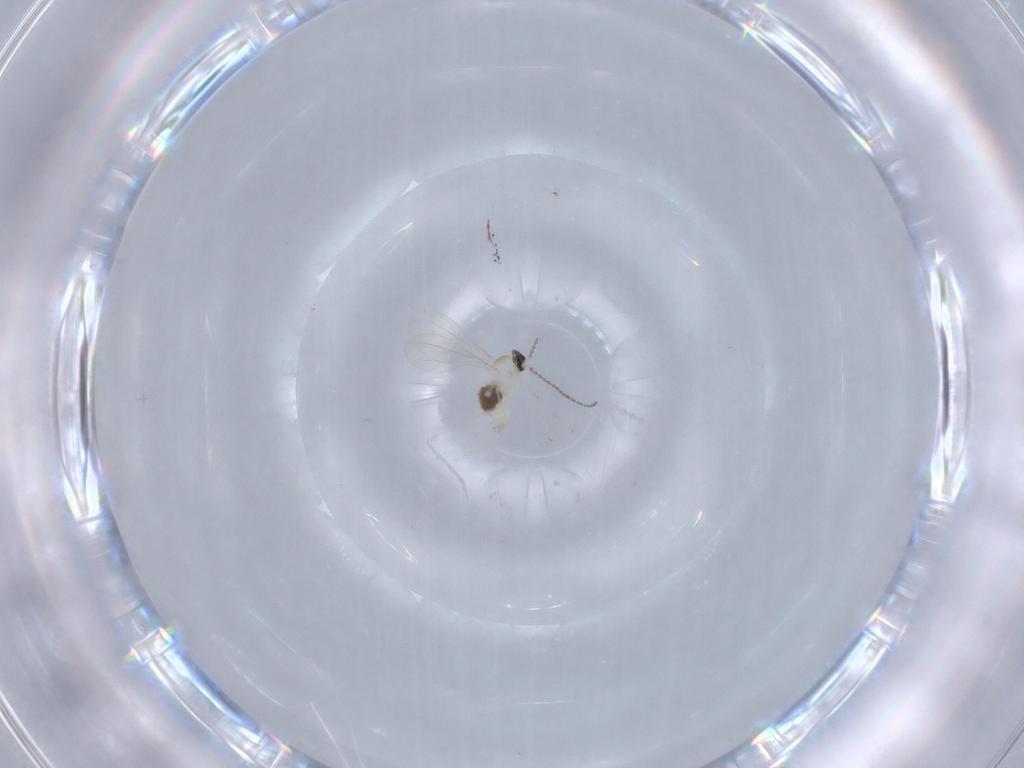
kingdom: Animalia
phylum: Arthropoda
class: Insecta
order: Diptera
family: Cecidomyiidae
